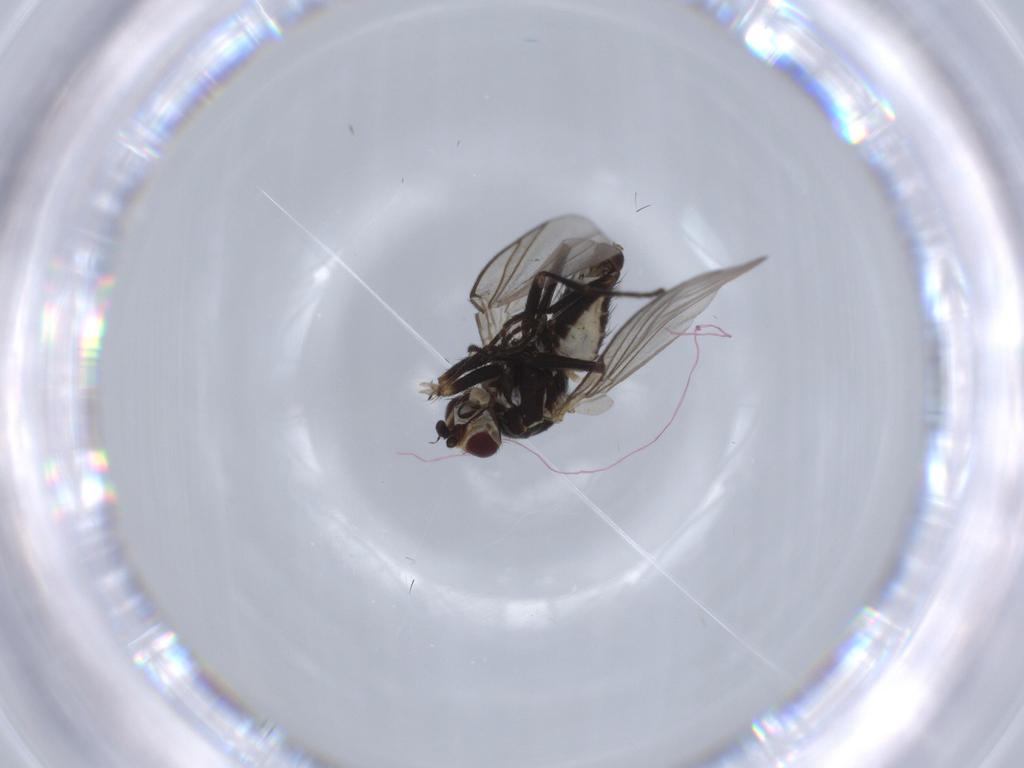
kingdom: Animalia
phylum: Arthropoda
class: Insecta
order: Diptera
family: Agromyzidae
